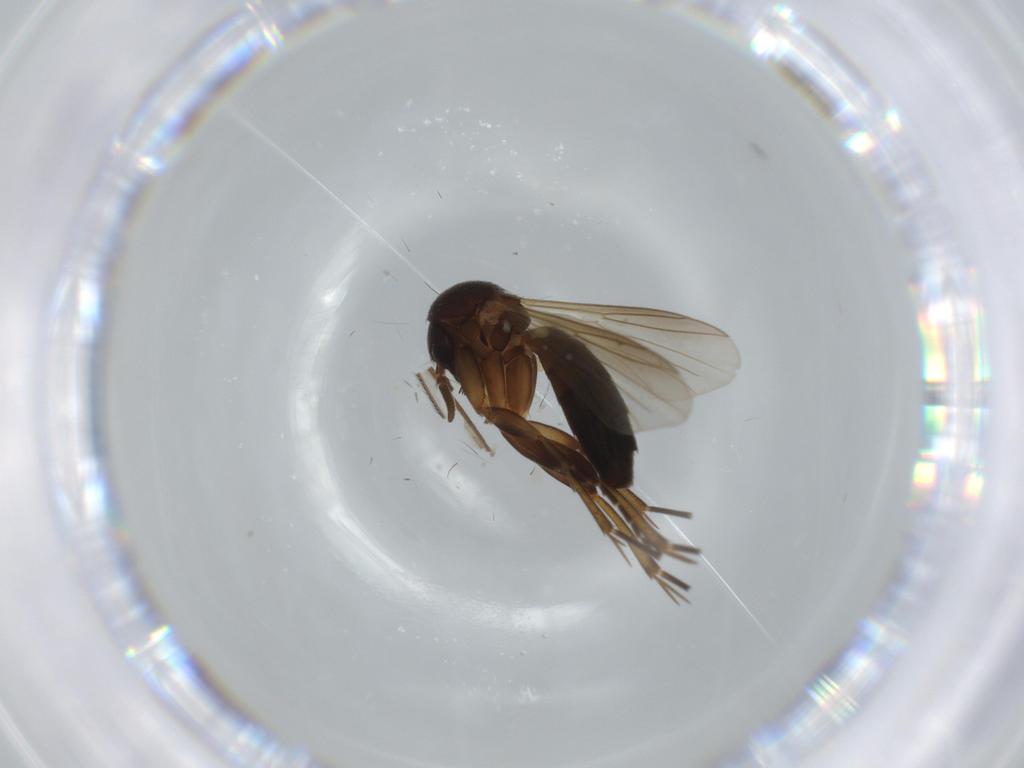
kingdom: Animalia
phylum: Arthropoda
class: Insecta
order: Diptera
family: Mycetophilidae
